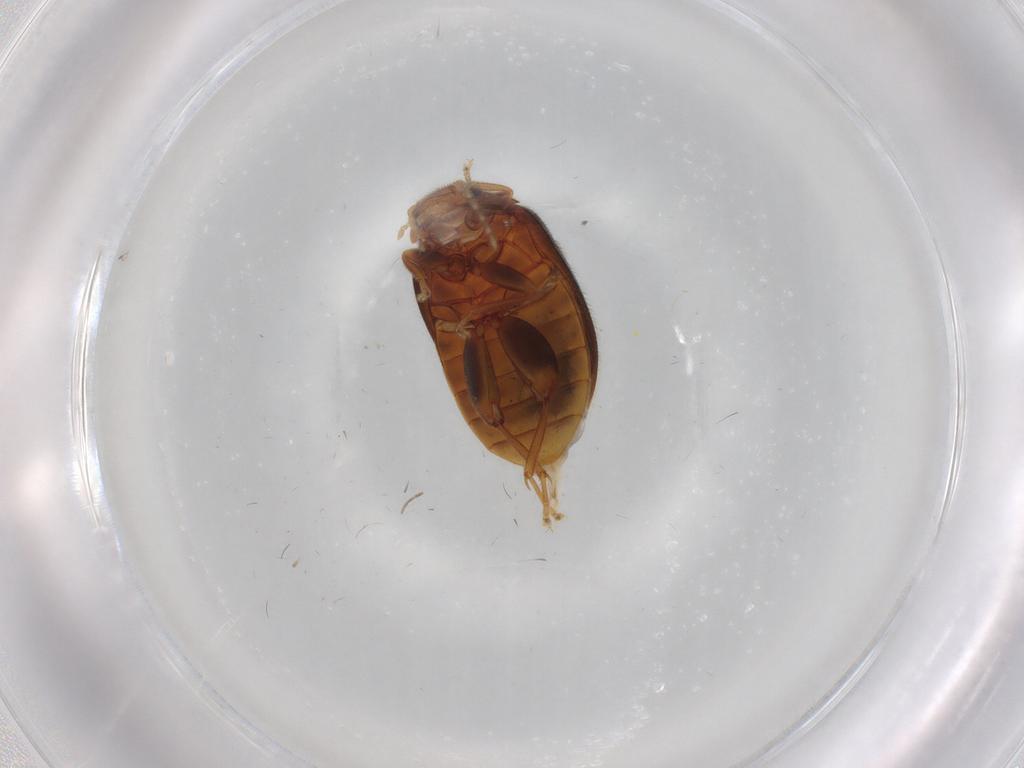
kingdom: Animalia
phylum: Arthropoda
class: Insecta
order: Coleoptera
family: Scirtidae
